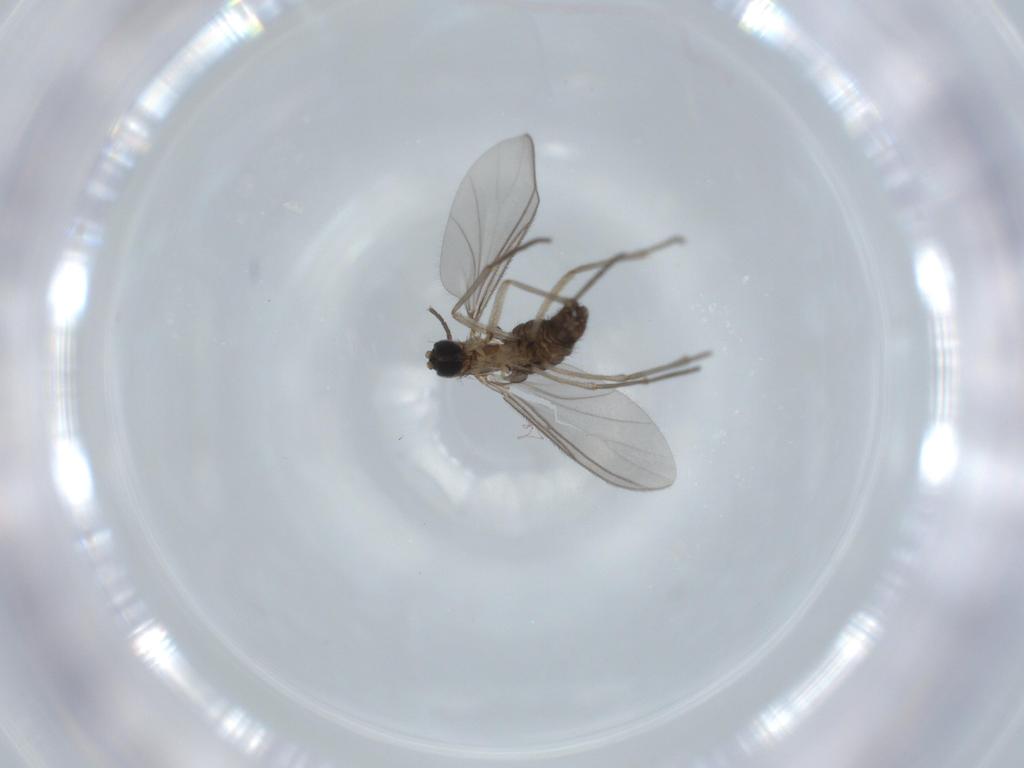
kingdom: Animalia
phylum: Arthropoda
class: Insecta
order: Diptera
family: Sciaridae
